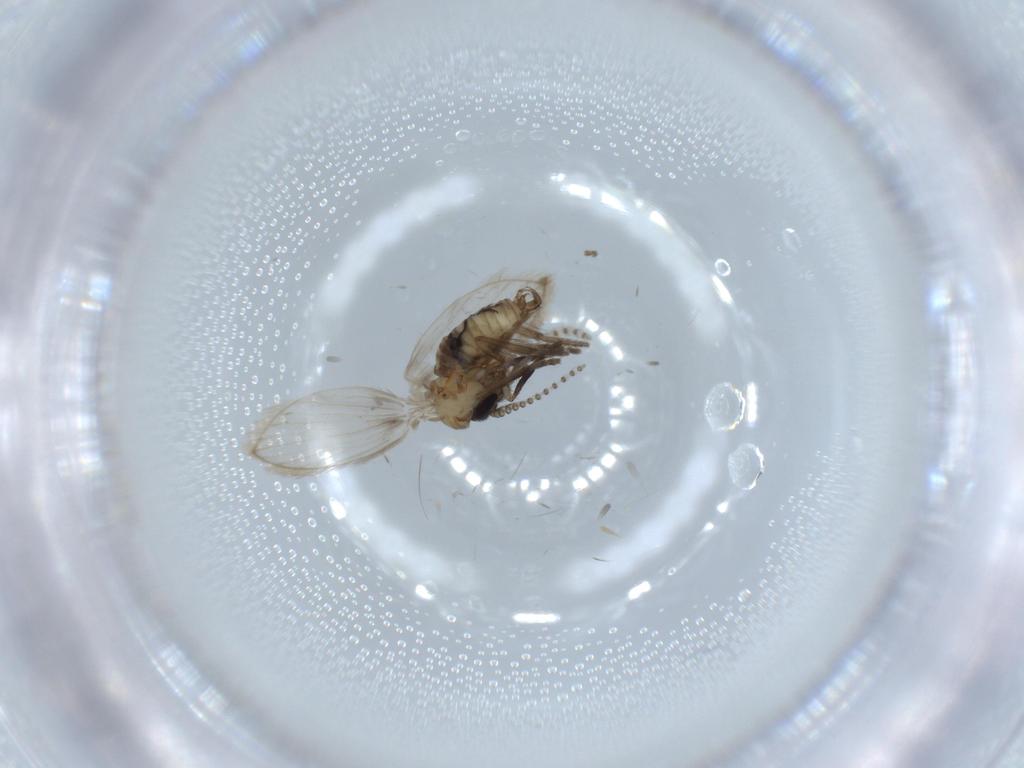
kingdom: Animalia
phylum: Arthropoda
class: Insecta
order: Diptera
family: Psychodidae
